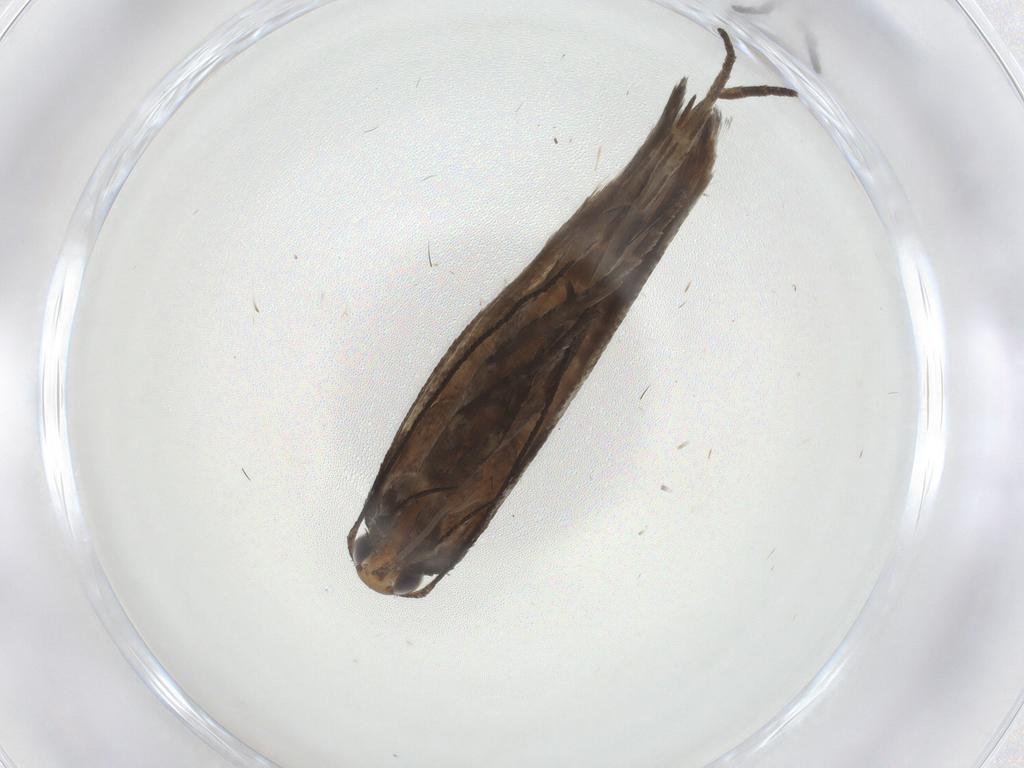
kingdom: Animalia
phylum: Arthropoda
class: Insecta
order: Lepidoptera
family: Gelechiidae
